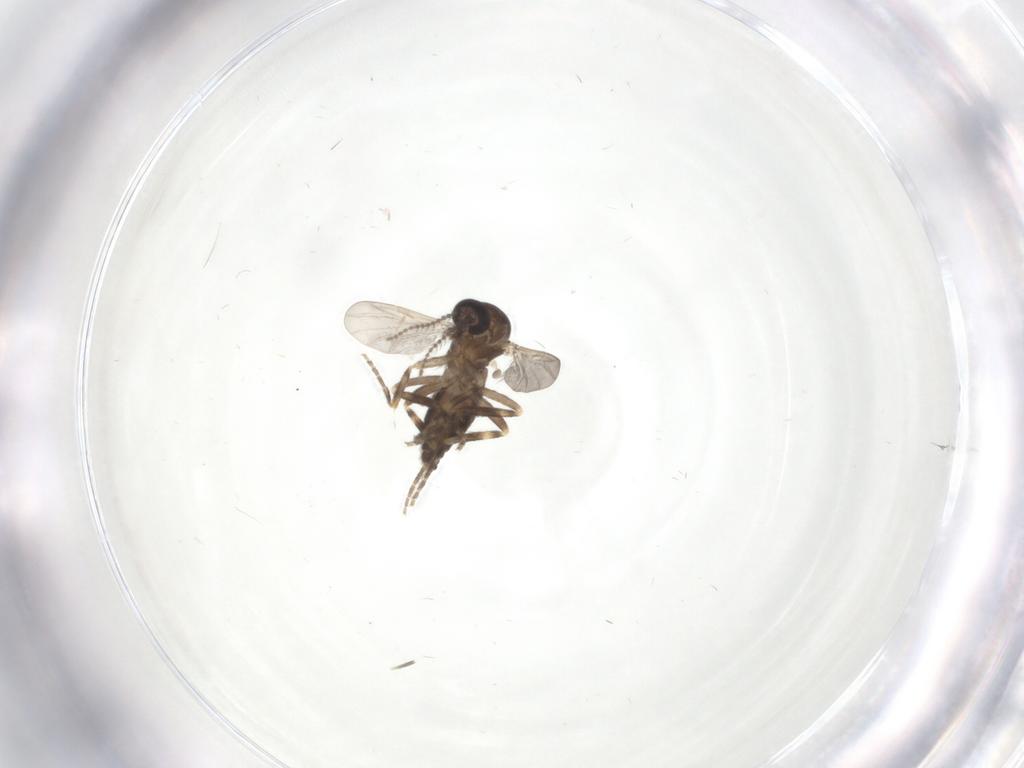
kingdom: Animalia
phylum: Arthropoda
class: Insecta
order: Diptera
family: Ceratopogonidae
